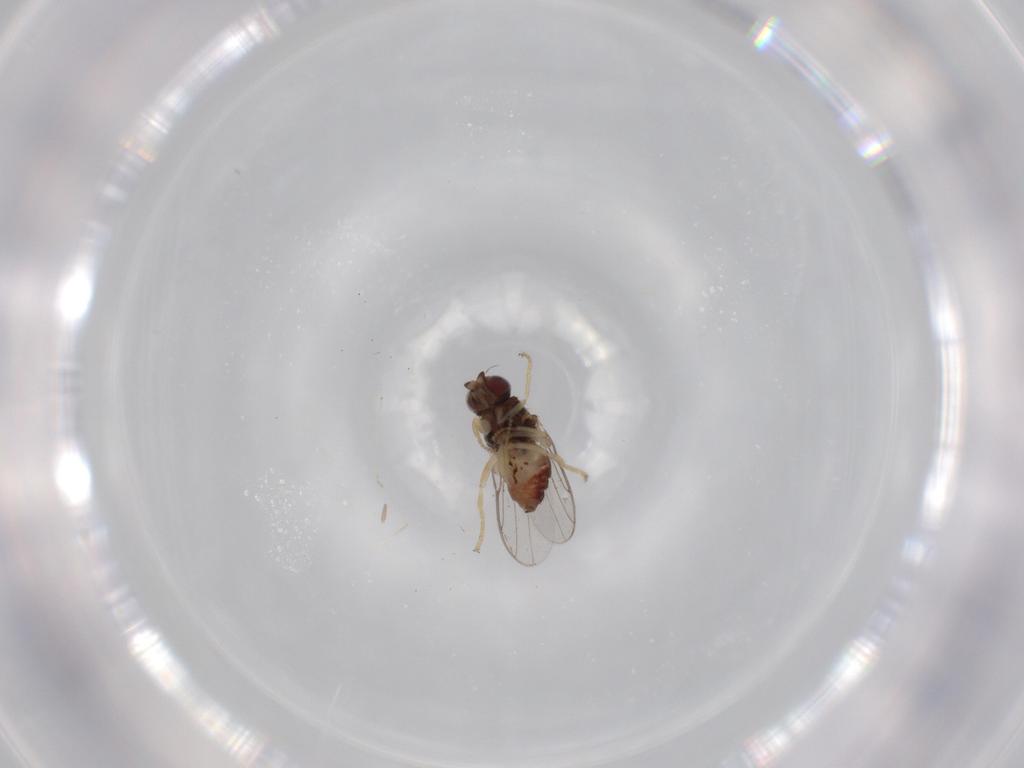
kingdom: Animalia
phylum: Arthropoda
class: Insecta
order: Diptera
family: Chloropidae
